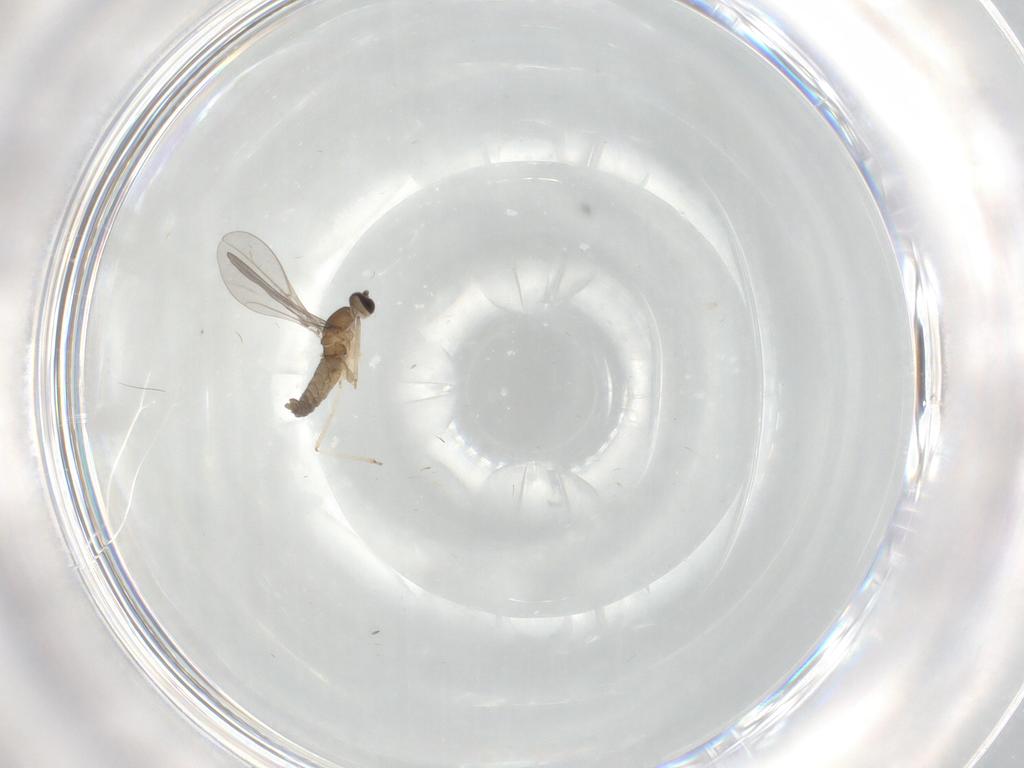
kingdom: Animalia
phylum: Arthropoda
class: Insecta
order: Diptera
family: Cecidomyiidae
